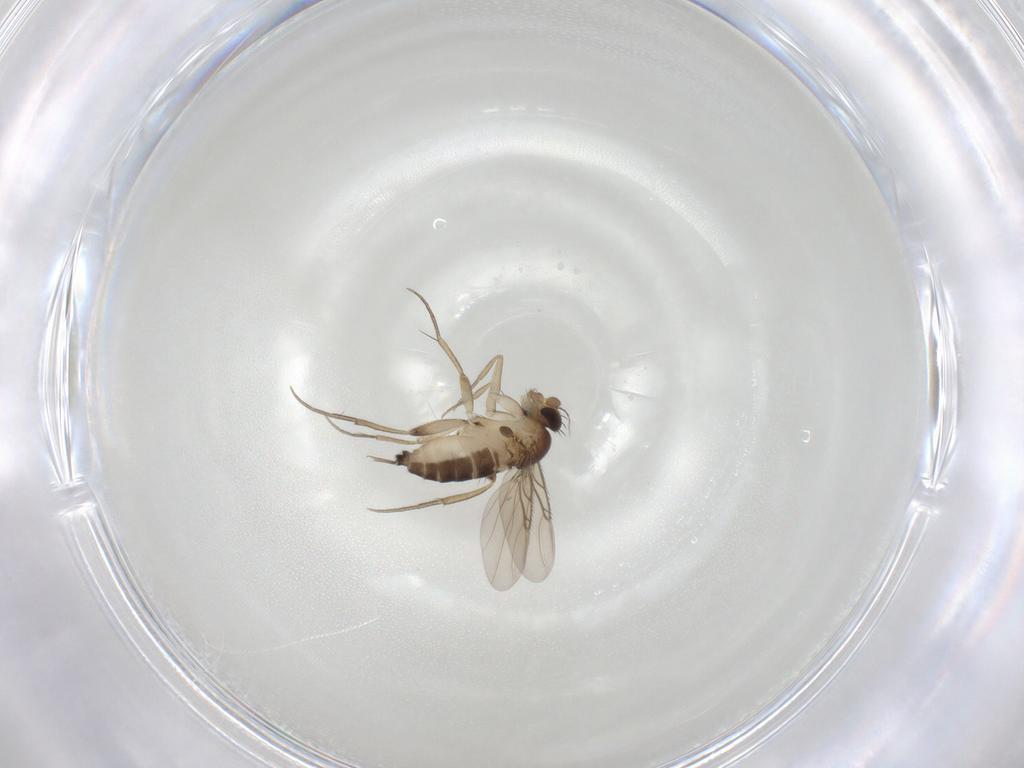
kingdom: Animalia
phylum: Arthropoda
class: Insecta
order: Diptera
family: Phoridae
